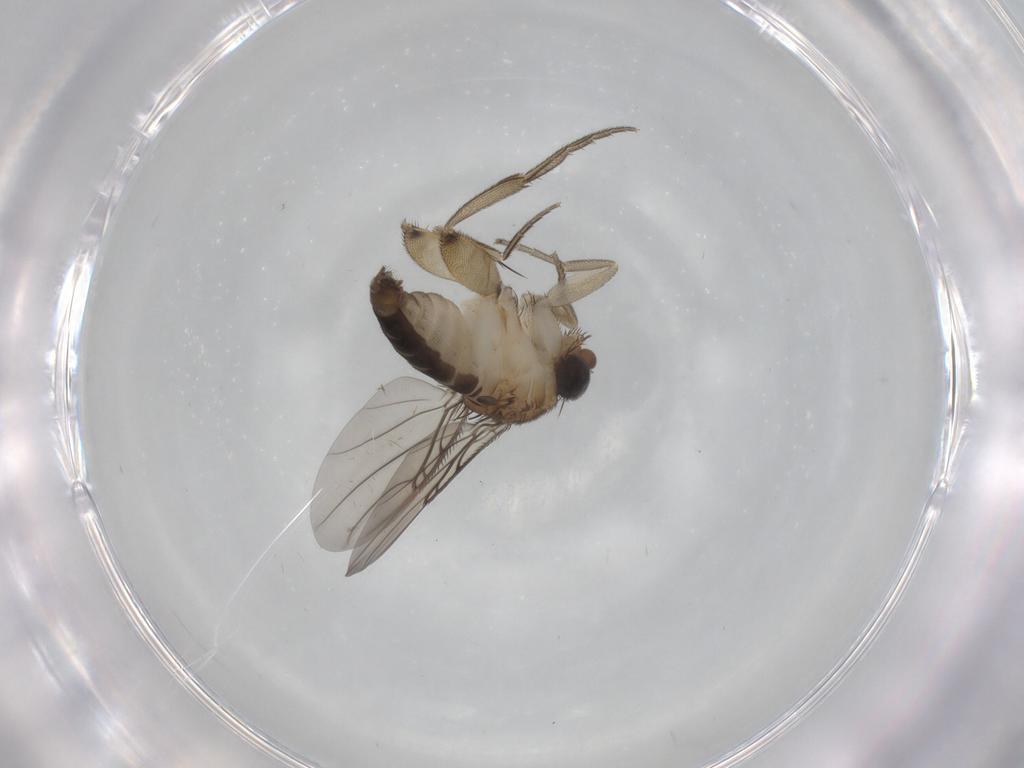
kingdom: Animalia
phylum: Arthropoda
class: Insecta
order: Diptera
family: Phoridae
